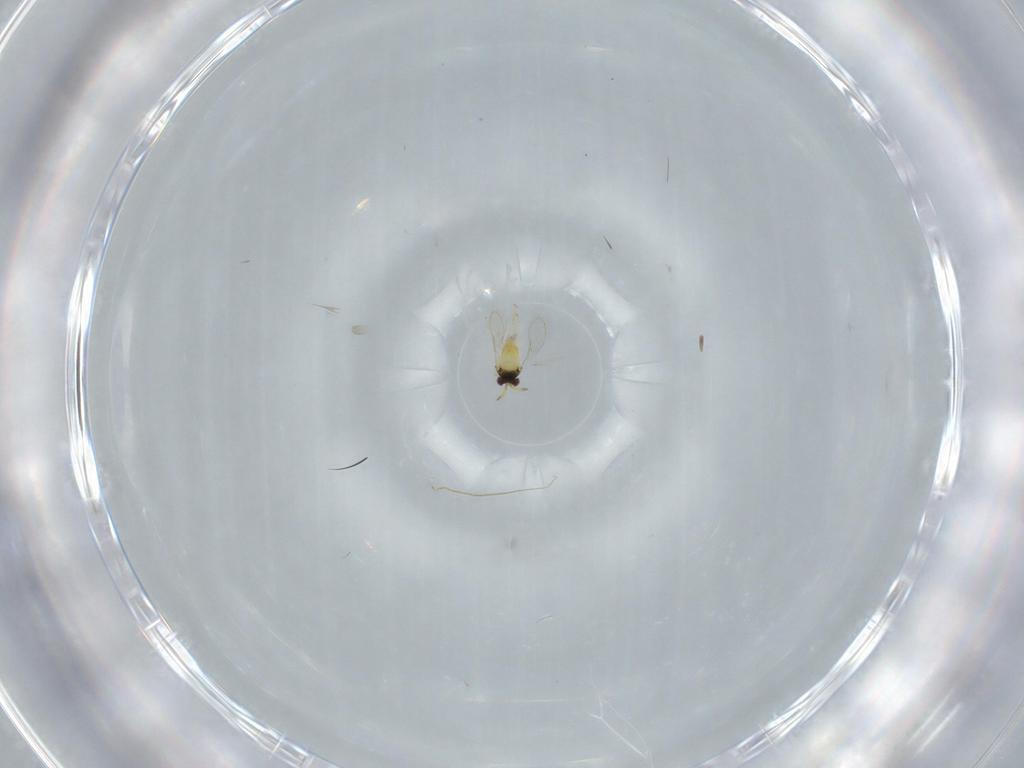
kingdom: Animalia
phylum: Arthropoda
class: Insecta
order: Hymenoptera
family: Aphelinidae
